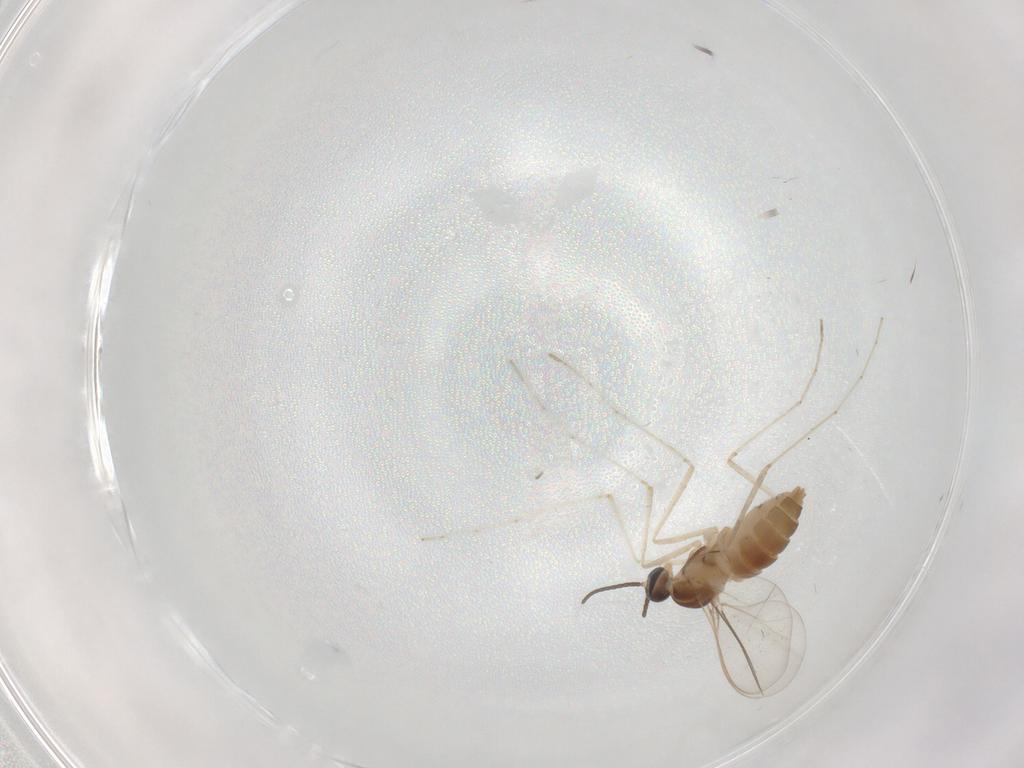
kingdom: Animalia
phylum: Arthropoda
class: Insecta
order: Diptera
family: Cecidomyiidae
